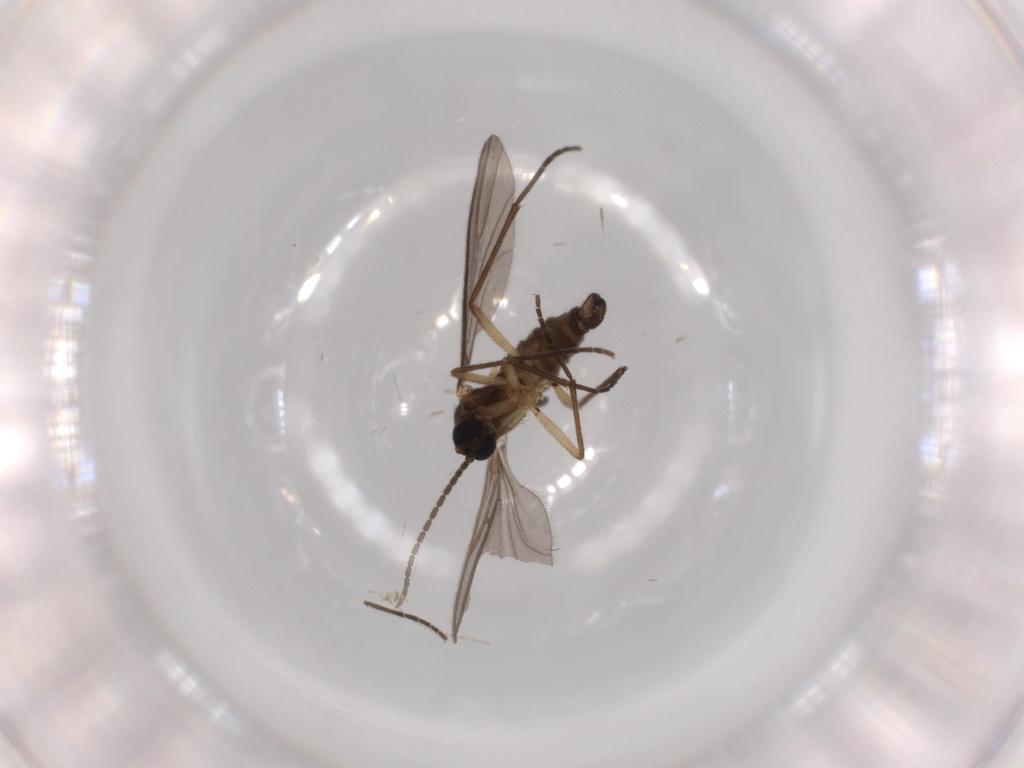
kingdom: Animalia
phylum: Arthropoda
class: Insecta
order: Diptera
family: Sciaridae
